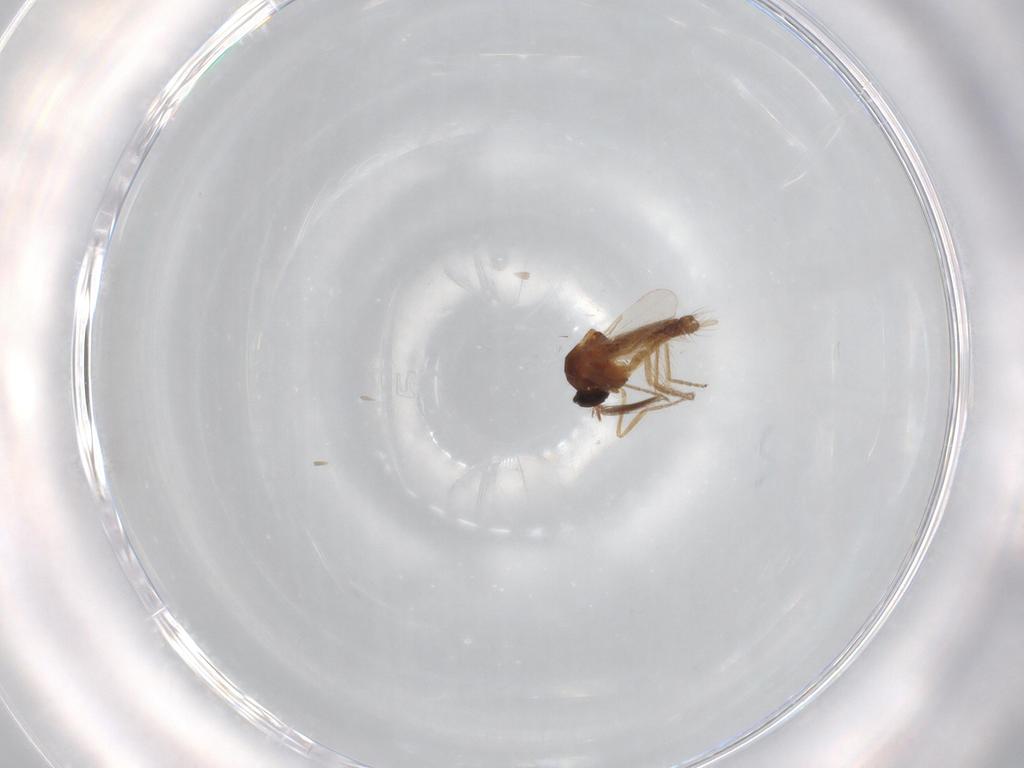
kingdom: Animalia
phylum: Arthropoda
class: Insecta
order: Diptera
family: Ceratopogonidae
